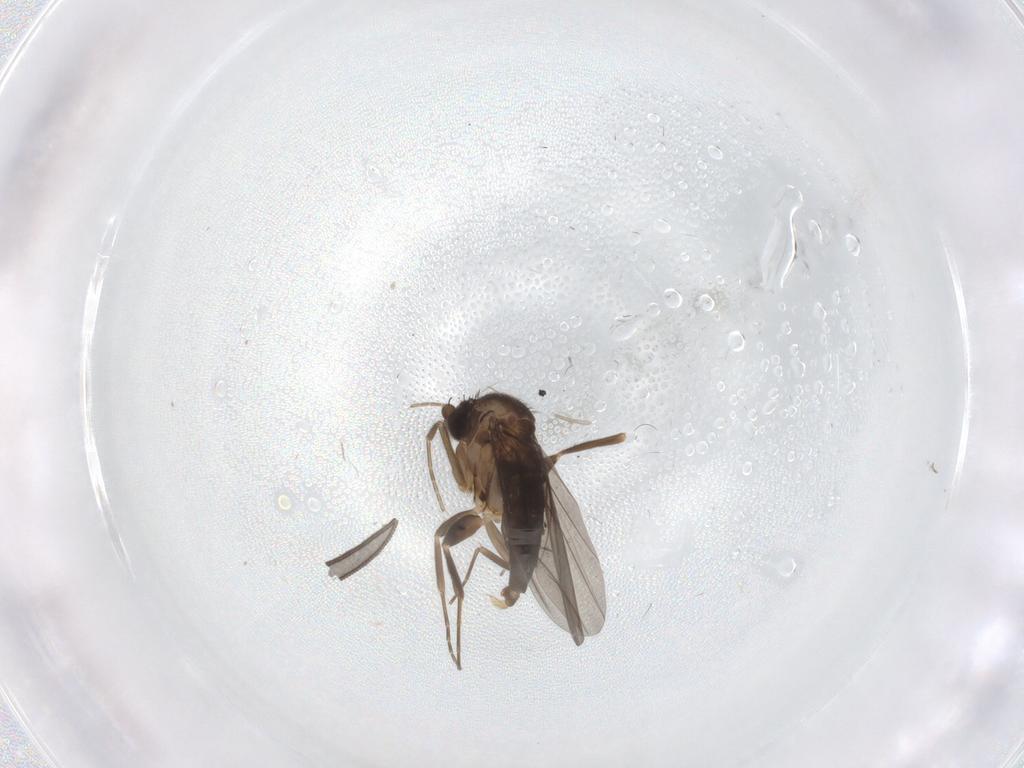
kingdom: Animalia
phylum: Arthropoda
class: Insecta
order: Diptera
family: Psychodidae
